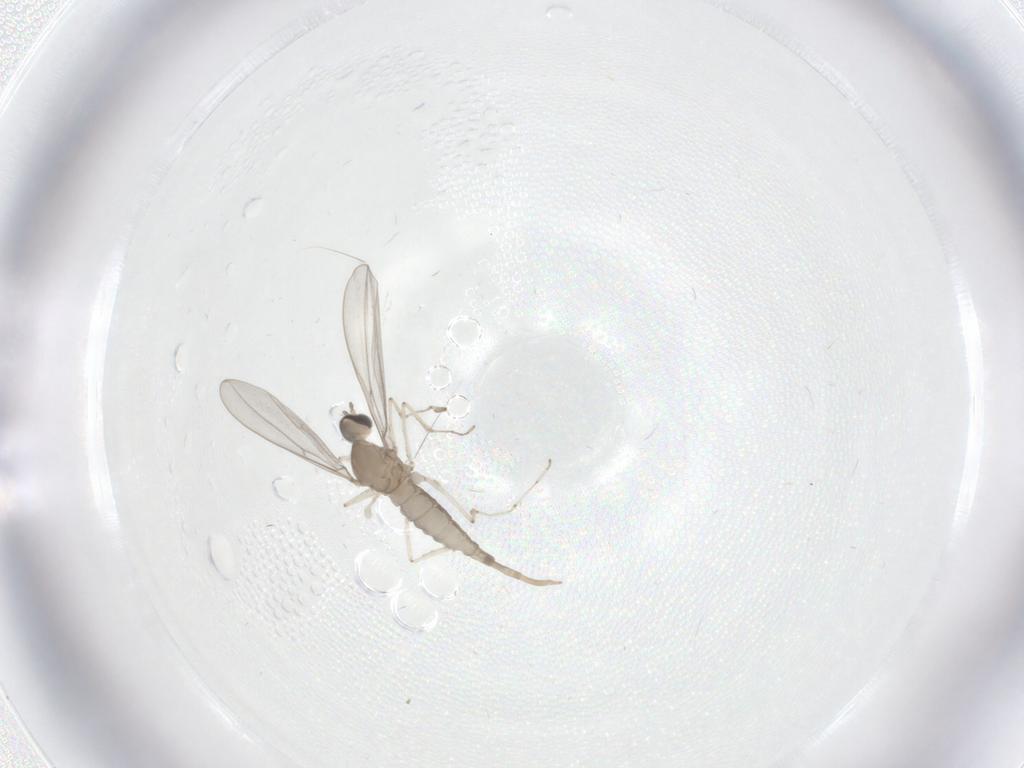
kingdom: Animalia
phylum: Arthropoda
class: Insecta
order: Diptera
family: Cecidomyiidae
